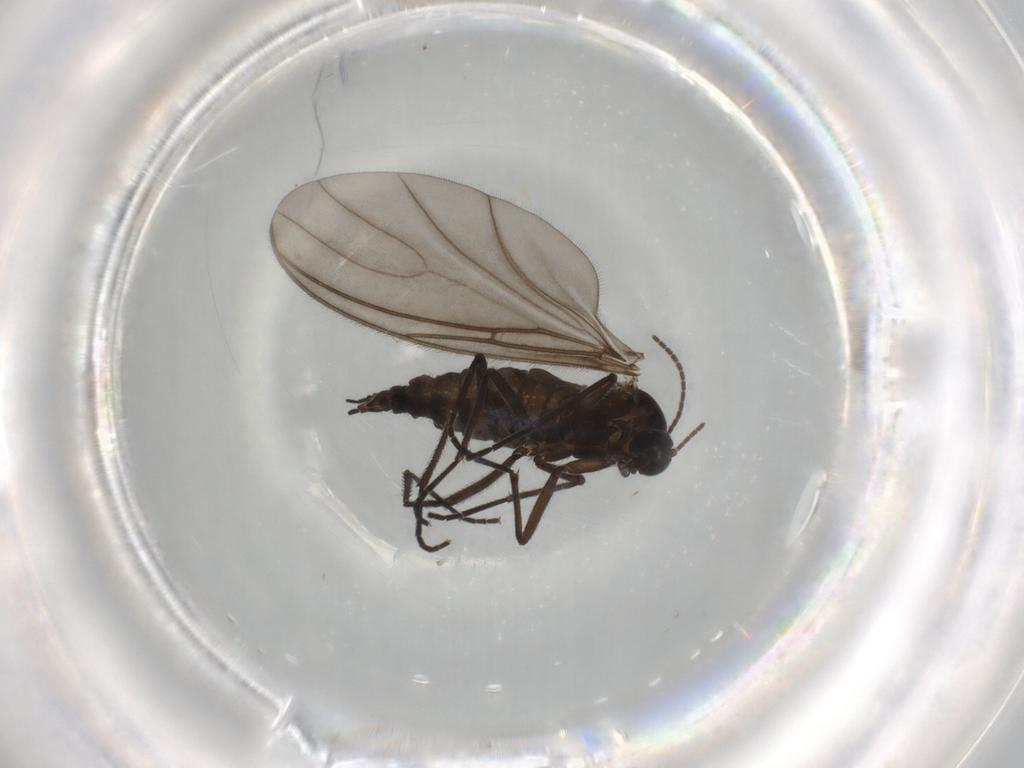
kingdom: Animalia
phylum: Arthropoda
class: Insecta
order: Diptera
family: Sciaridae
